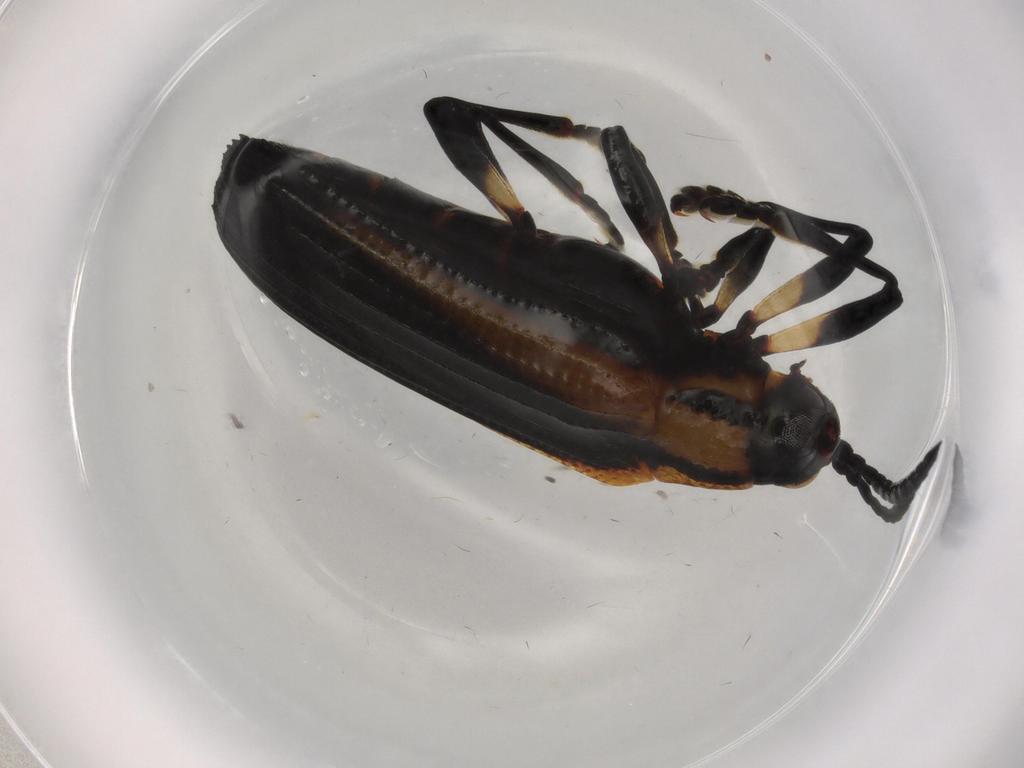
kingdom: Animalia
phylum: Arthropoda
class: Insecta
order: Coleoptera
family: Chrysomelidae
